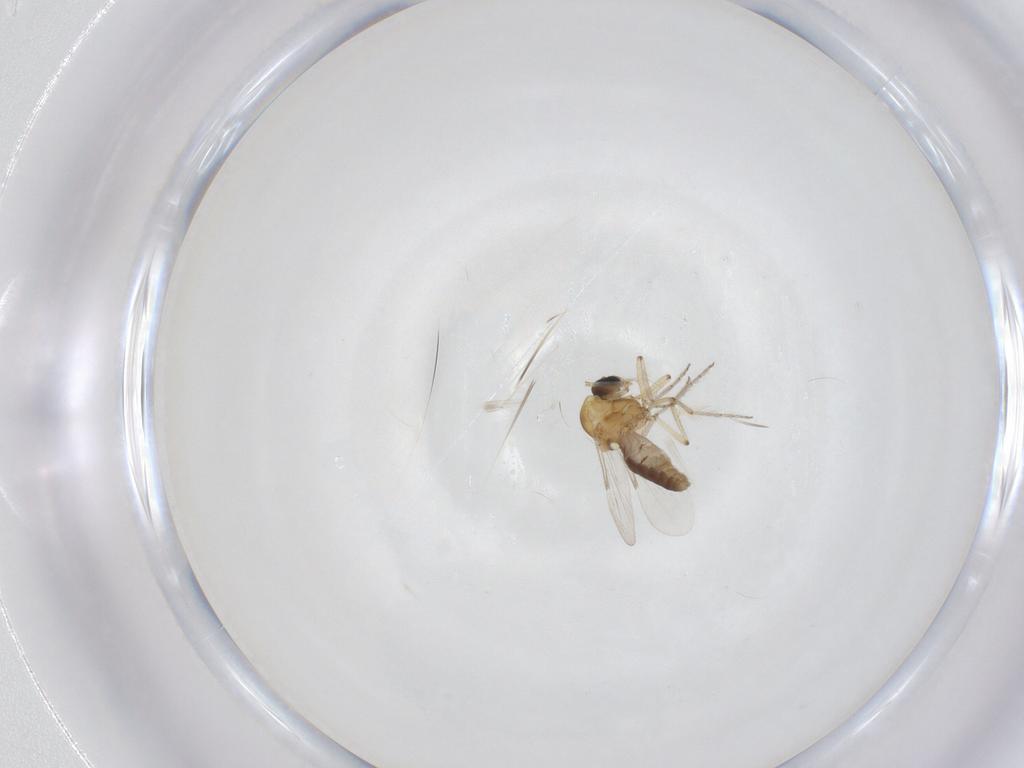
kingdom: Animalia
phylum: Arthropoda
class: Insecta
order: Diptera
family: Ceratopogonidae
